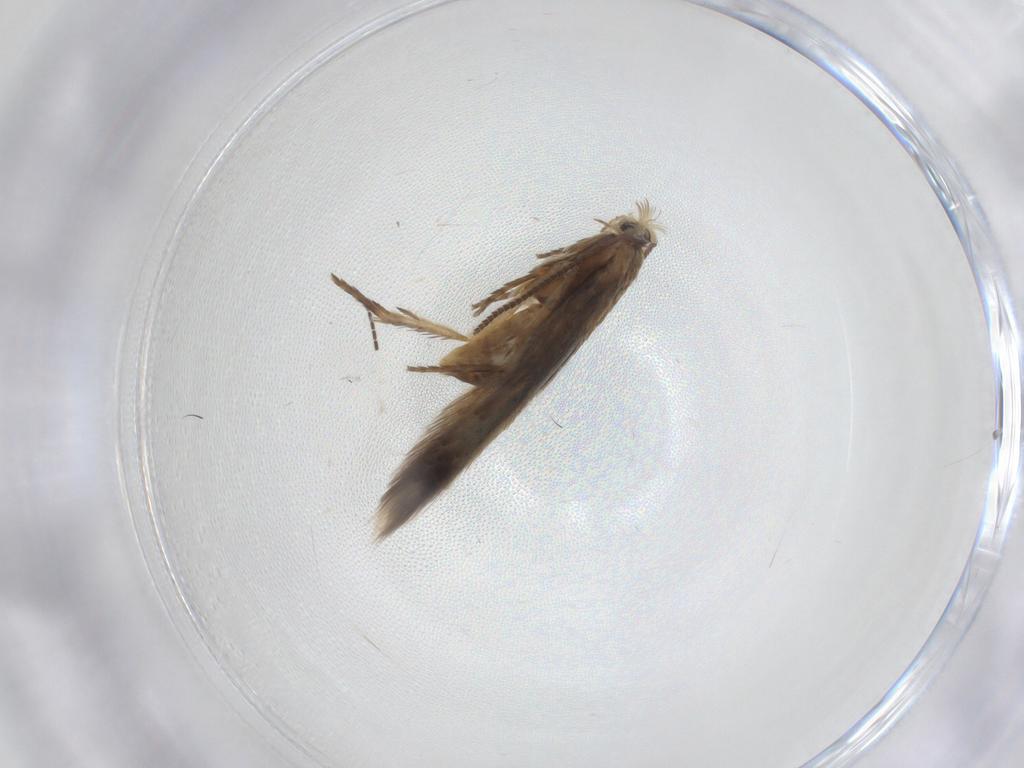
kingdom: Animalia
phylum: Arthropoda
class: Insecta
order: Lepidoptera
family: Nepticulidae
